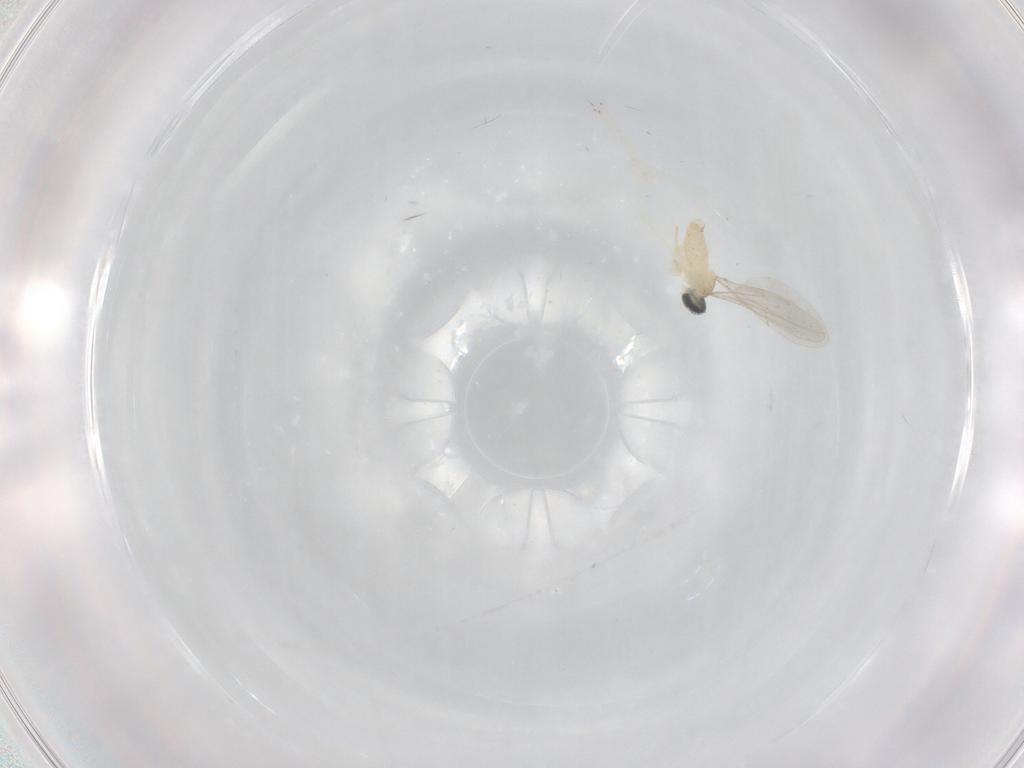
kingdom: Animalia
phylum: Arthropoda
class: Insecta
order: Diptera
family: Cecidomyiidae
